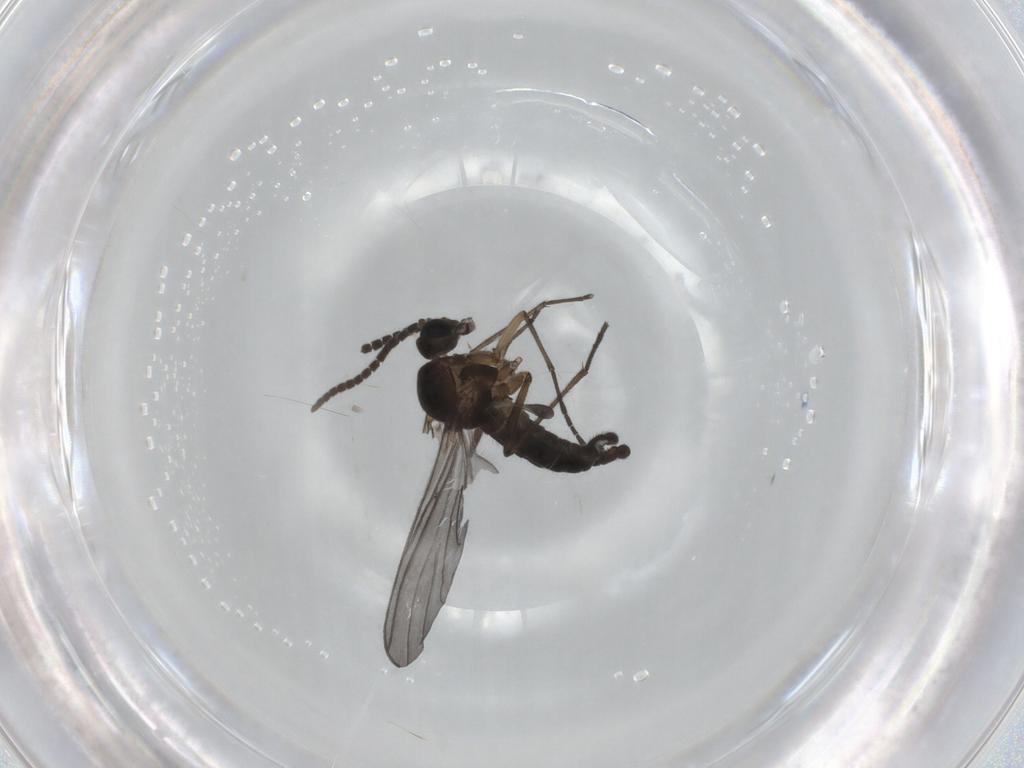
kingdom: Animalia
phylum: Arthropoda
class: Insecta
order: Diptera
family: Sciaridae
